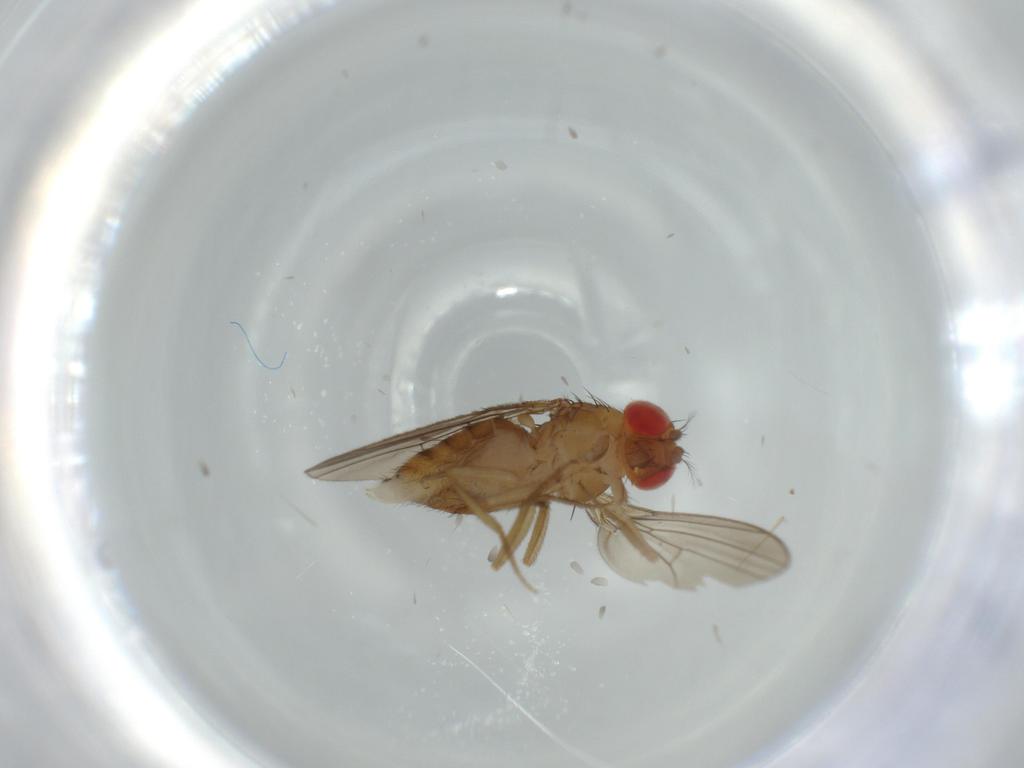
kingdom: Animalia
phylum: Arthropoda
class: Insecta
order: Diptera
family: Drosophilidae
